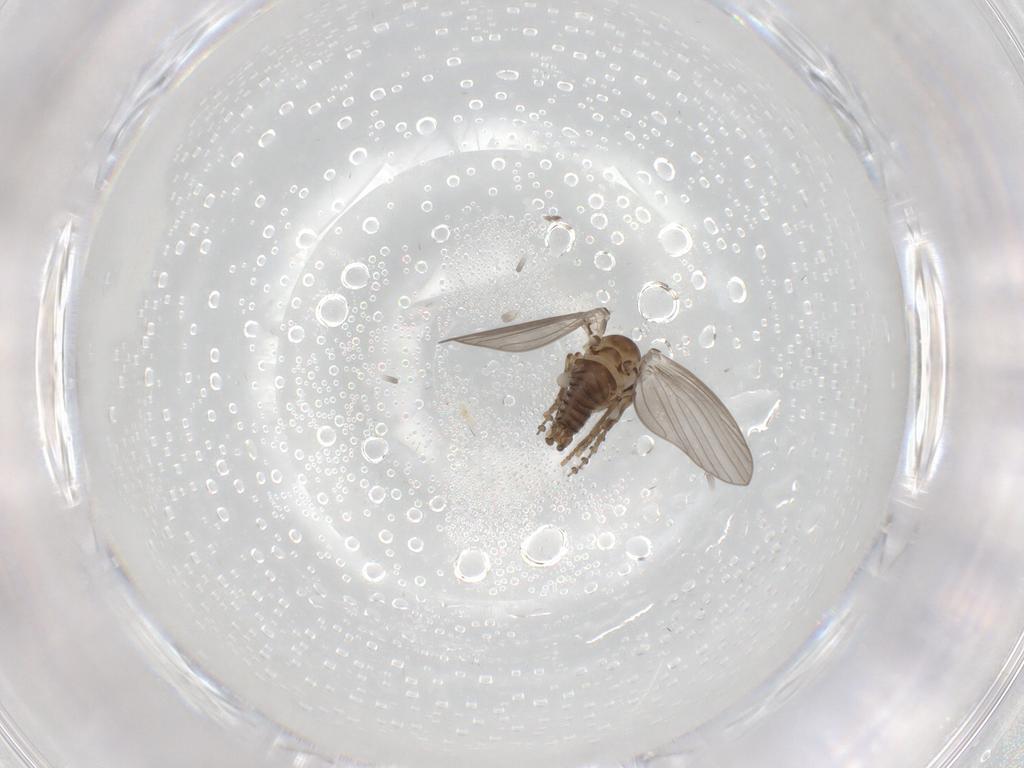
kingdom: Animalia
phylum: Arthropoda
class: Insecta
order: Diptera
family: Psychodidae
